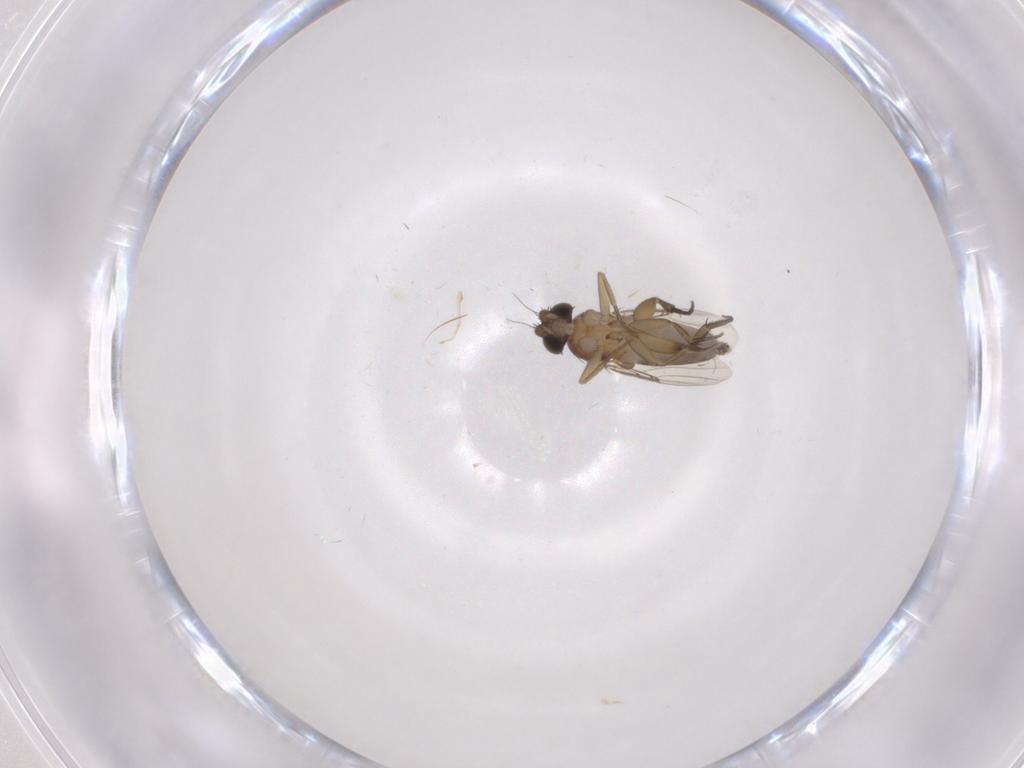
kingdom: Animalia
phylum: Arthropoda
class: Insecta
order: Diptera
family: Phoridae
